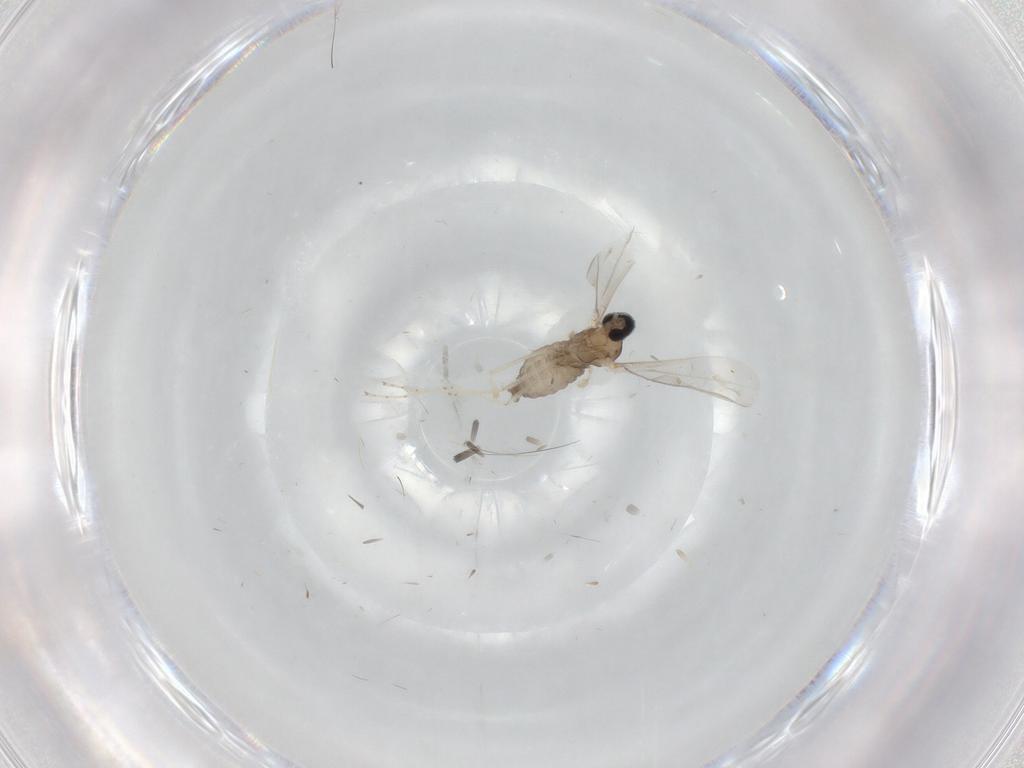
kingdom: Animalia
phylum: Arthropoda
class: Insecta
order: Diptera
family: Cecidomyiidae
